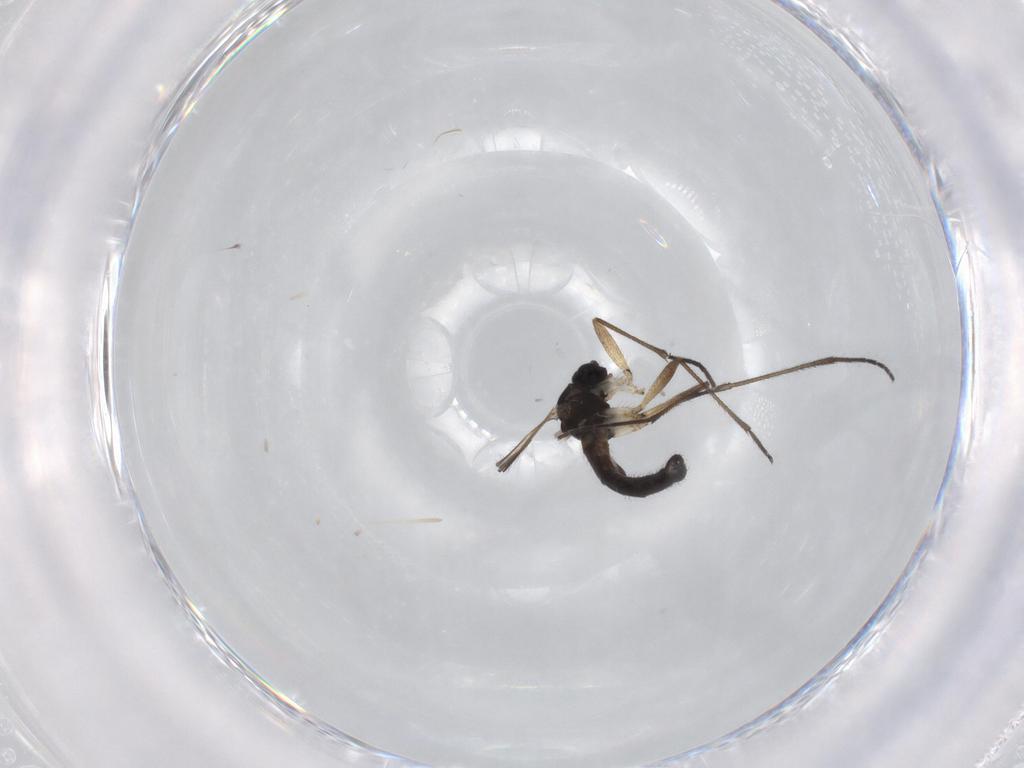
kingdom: Animalia
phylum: Arthropoda
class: Insecta
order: Diptera
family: Sciaridae
